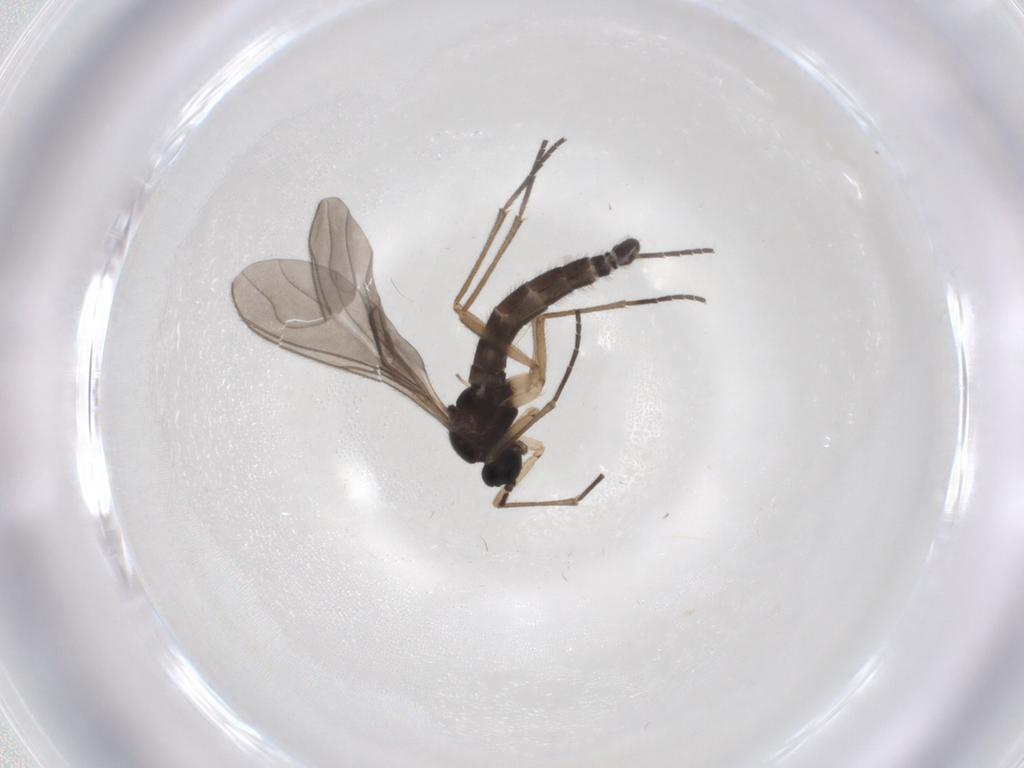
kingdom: Animalia
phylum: Arthropoda
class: Insecta
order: Diptera
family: Sciaridae
